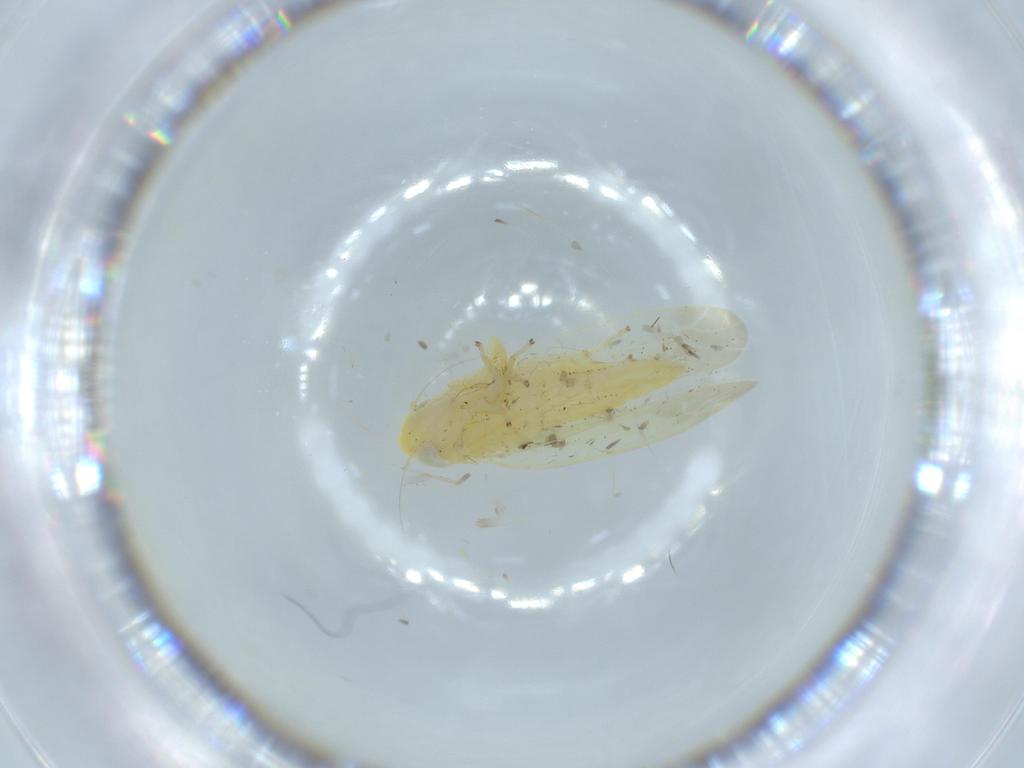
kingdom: Animalia
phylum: Arthropoda
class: Insecta
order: Hemiptera
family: Cicadellidae
